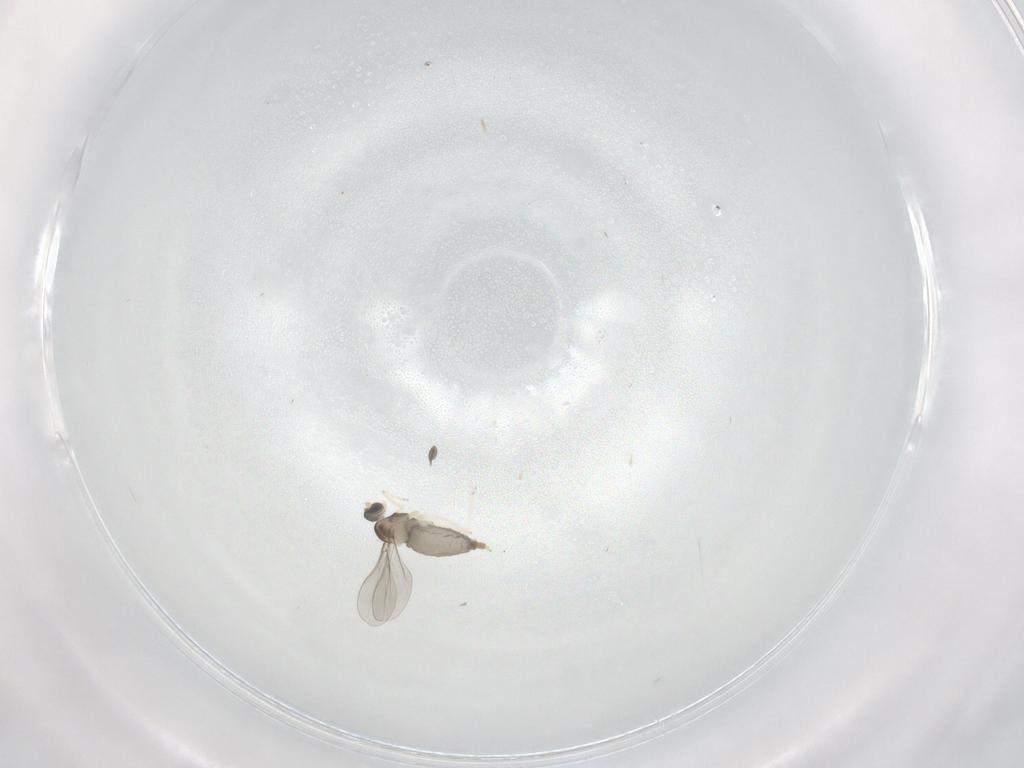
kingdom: Animalia
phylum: Arthropoda
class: Insecta
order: Diptera
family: Cecidomyiidae
